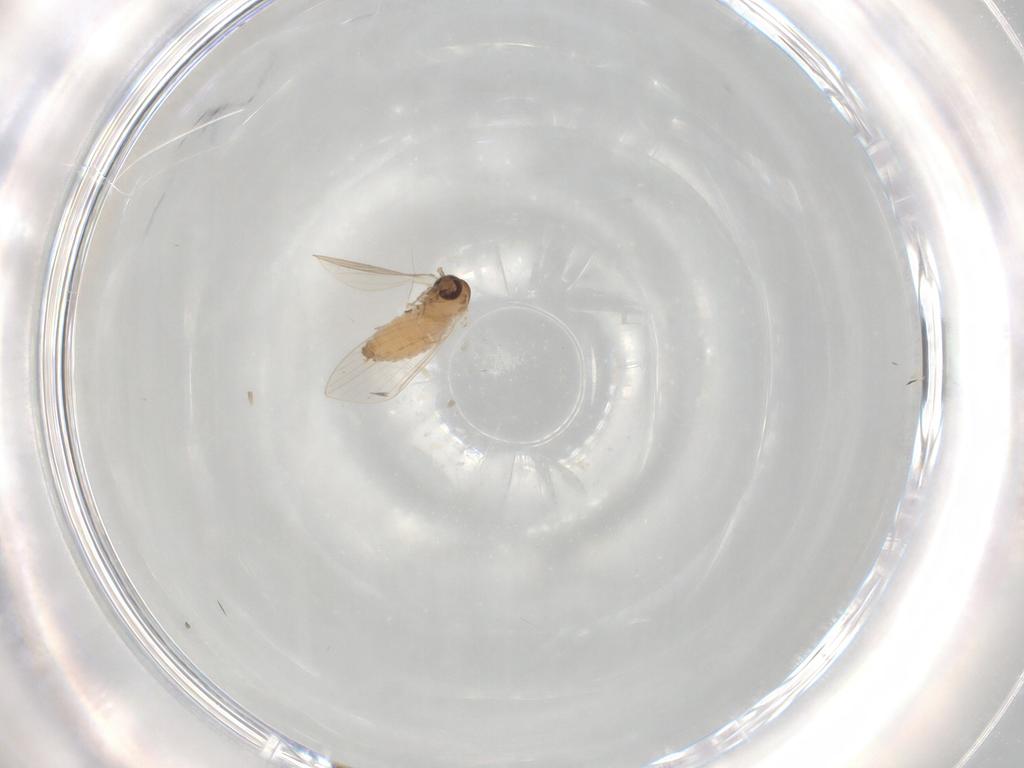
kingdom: Animalia
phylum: Arthropoda
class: Insecta
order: Diptera
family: Psychodidae
